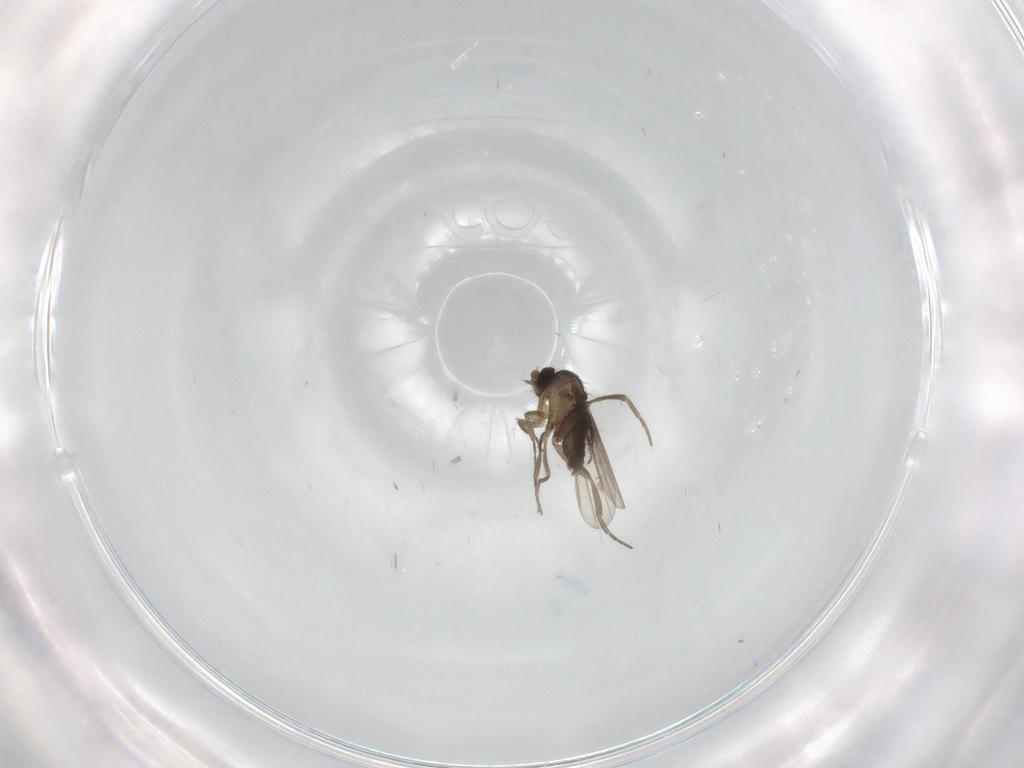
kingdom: Animalia
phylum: Arthropoda
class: Insecta
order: Diptera
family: Phoridae
